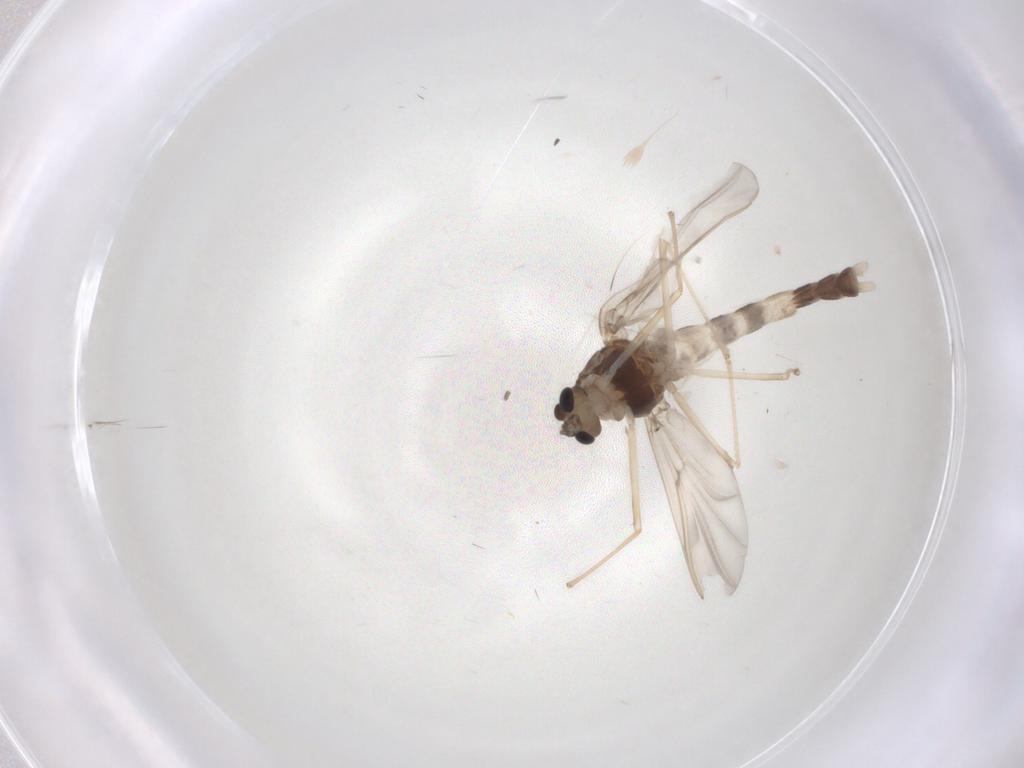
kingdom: Animalia
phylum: Arthropoda
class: Insecta
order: Diptera
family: Chironomidae
